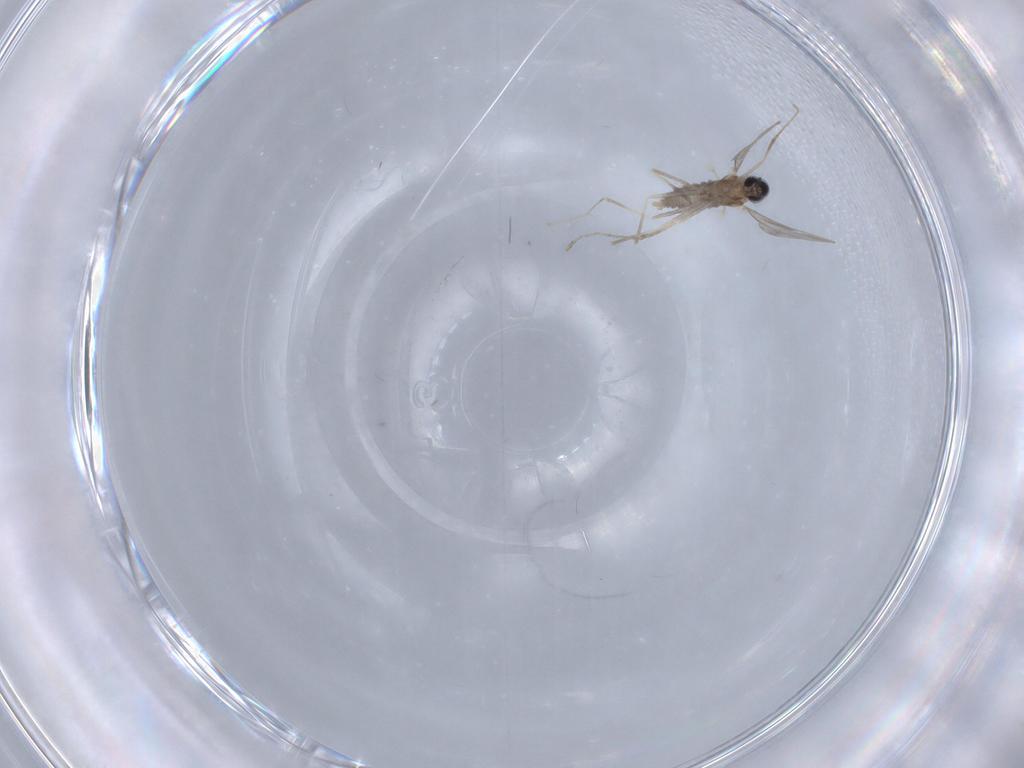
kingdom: Animalia
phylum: Arthropoda
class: Insecta
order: Diptera
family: Cecidomyiidae
